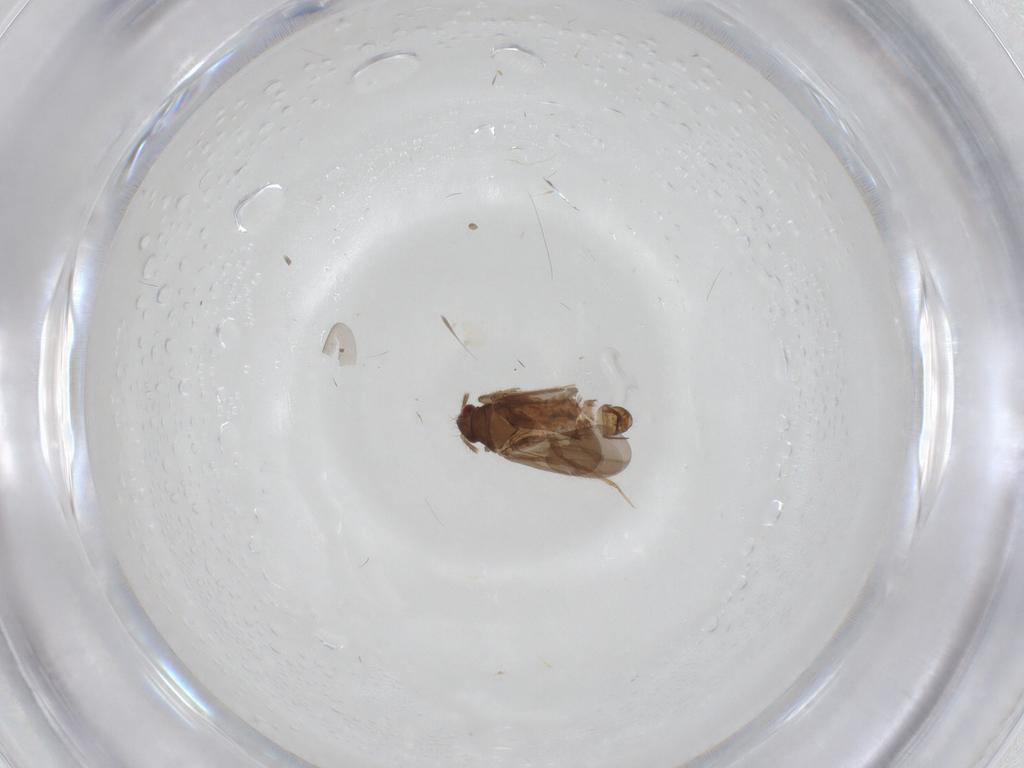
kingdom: Animalia
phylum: Arthropoda
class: Insecta
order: Hemiptera
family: Ceratocombidae
